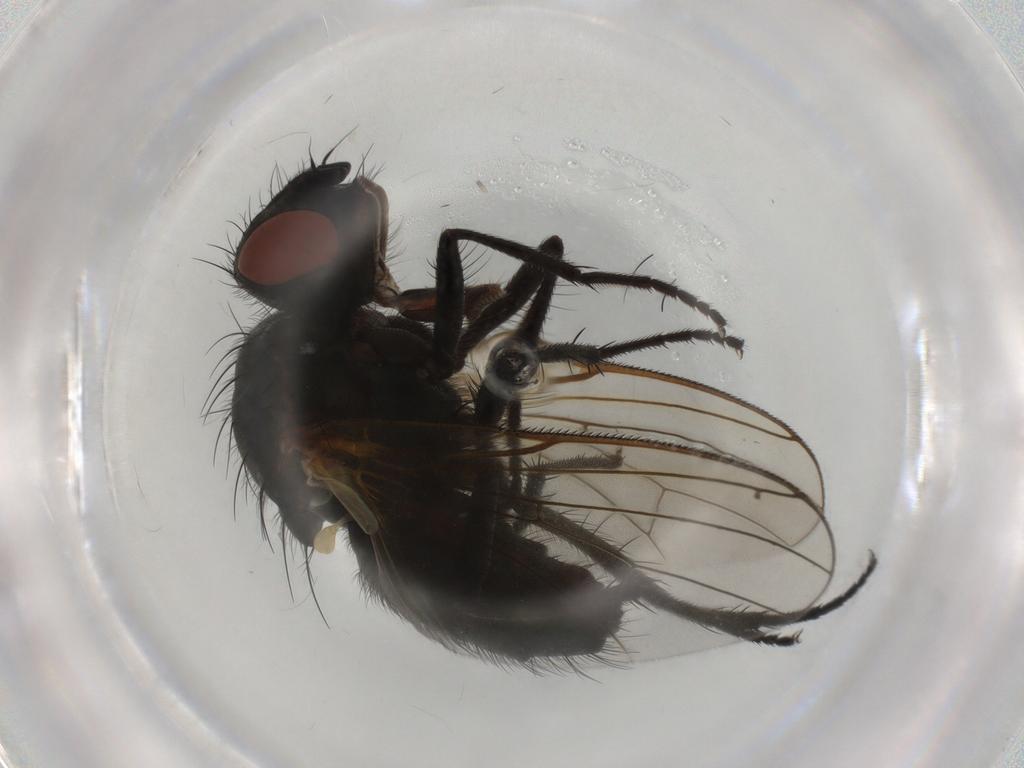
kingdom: Animalia
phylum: Arthropoda
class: Insecta
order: Diptera
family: Anthomyiidae
